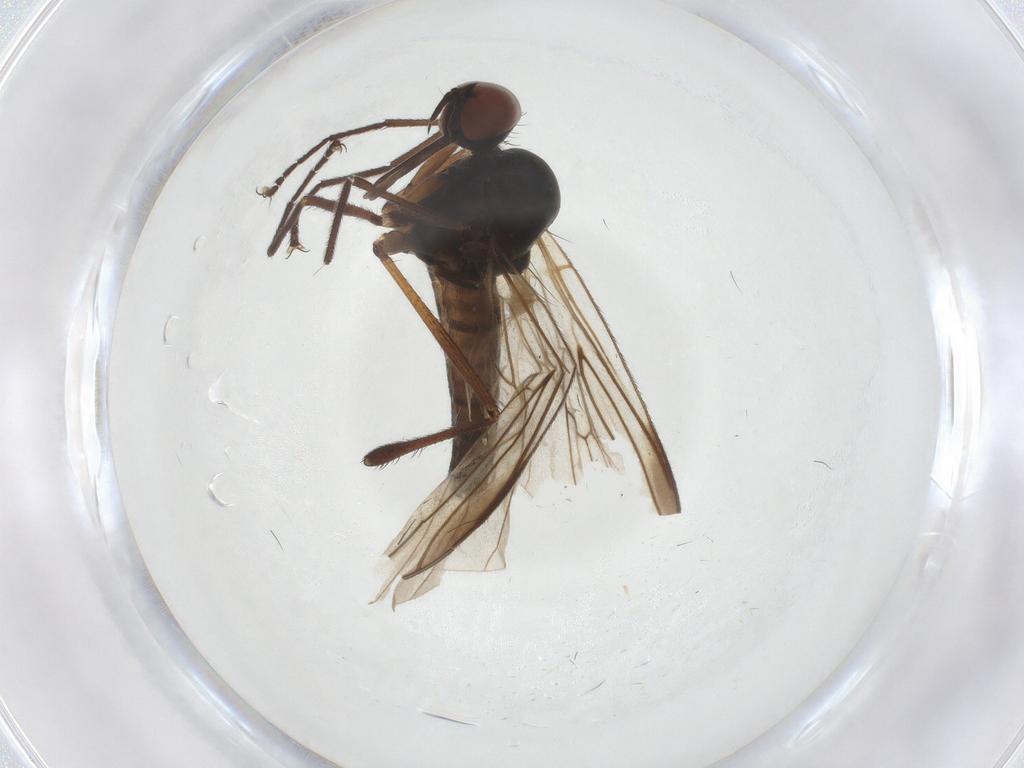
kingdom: Animalia
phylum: Arthropoda
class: Insecta
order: Diptera
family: Empididae
